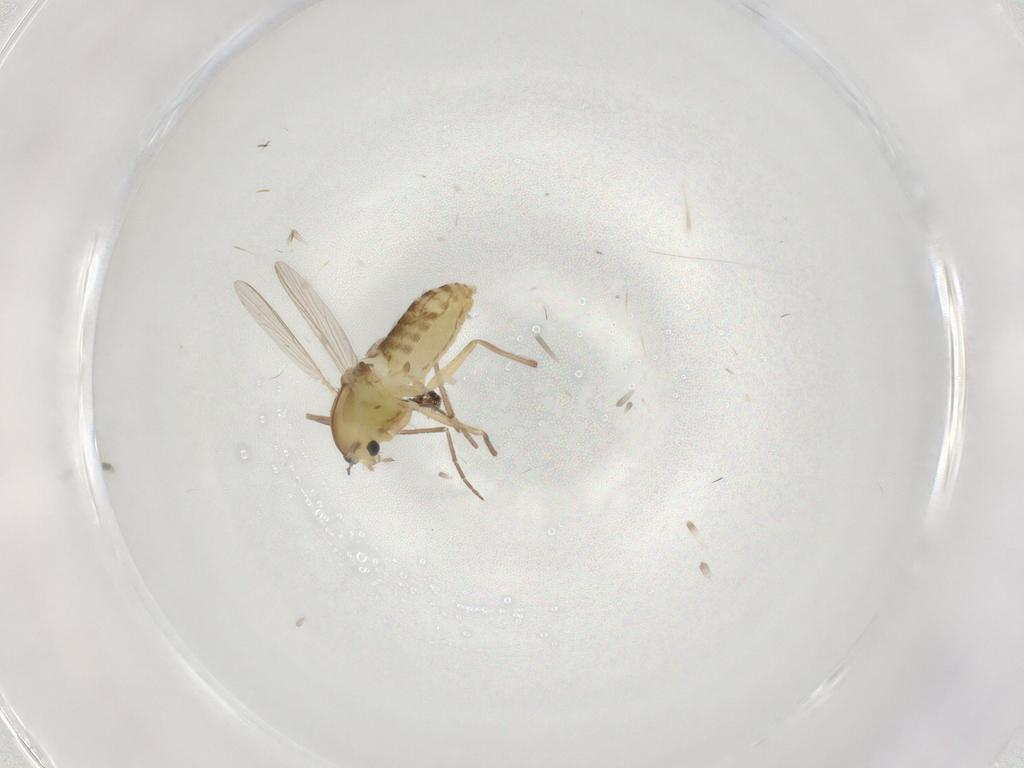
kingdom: Animalia
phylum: Arthropoda
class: Insecta
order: Diptera
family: Chironomidae
